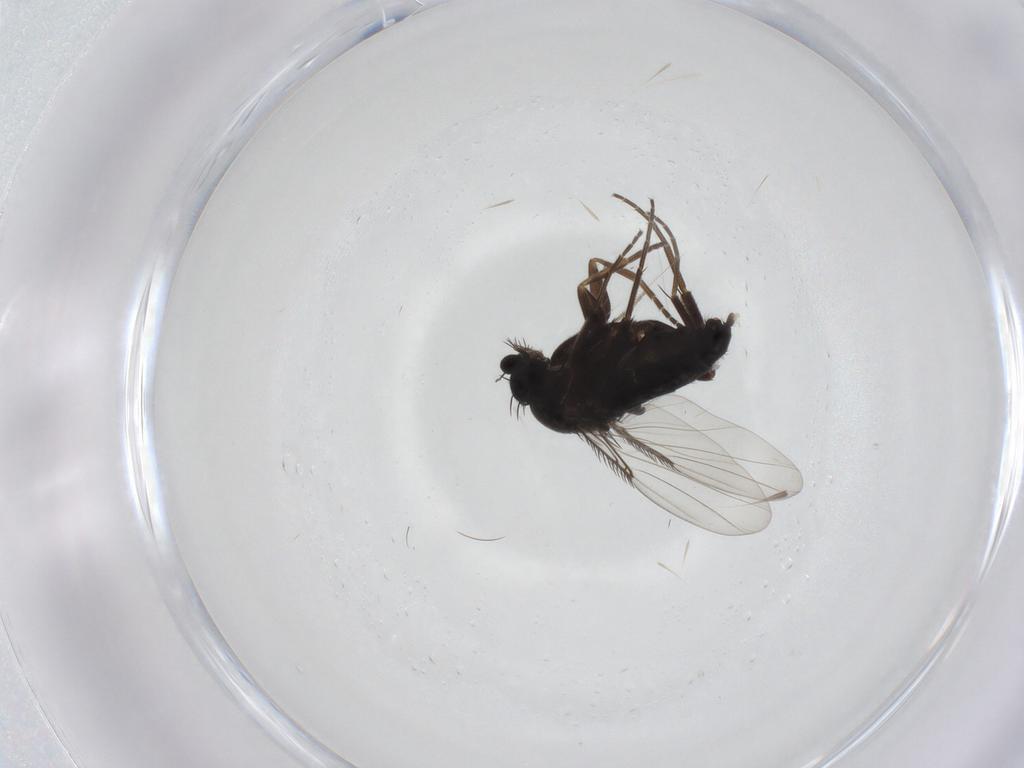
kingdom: Animalia
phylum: Arthropoda
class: Insecta
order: Diptera
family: Phoridae
